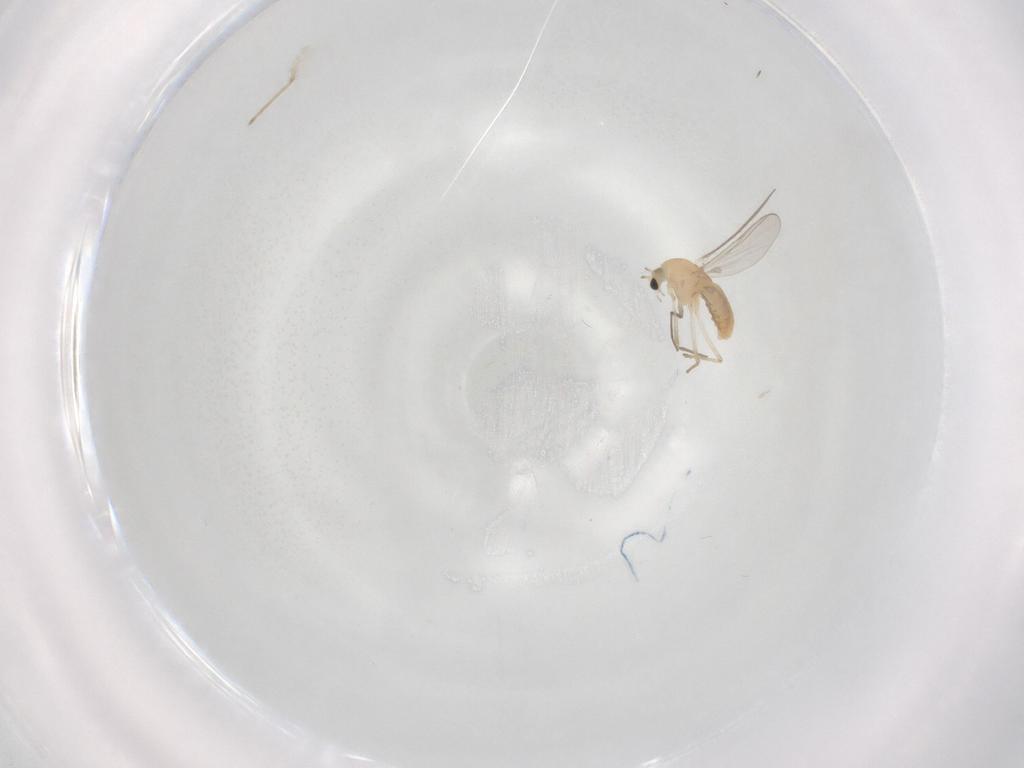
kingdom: Animalia
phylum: Arthropoda
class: Insecta
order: Diptera
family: Chironomidae
